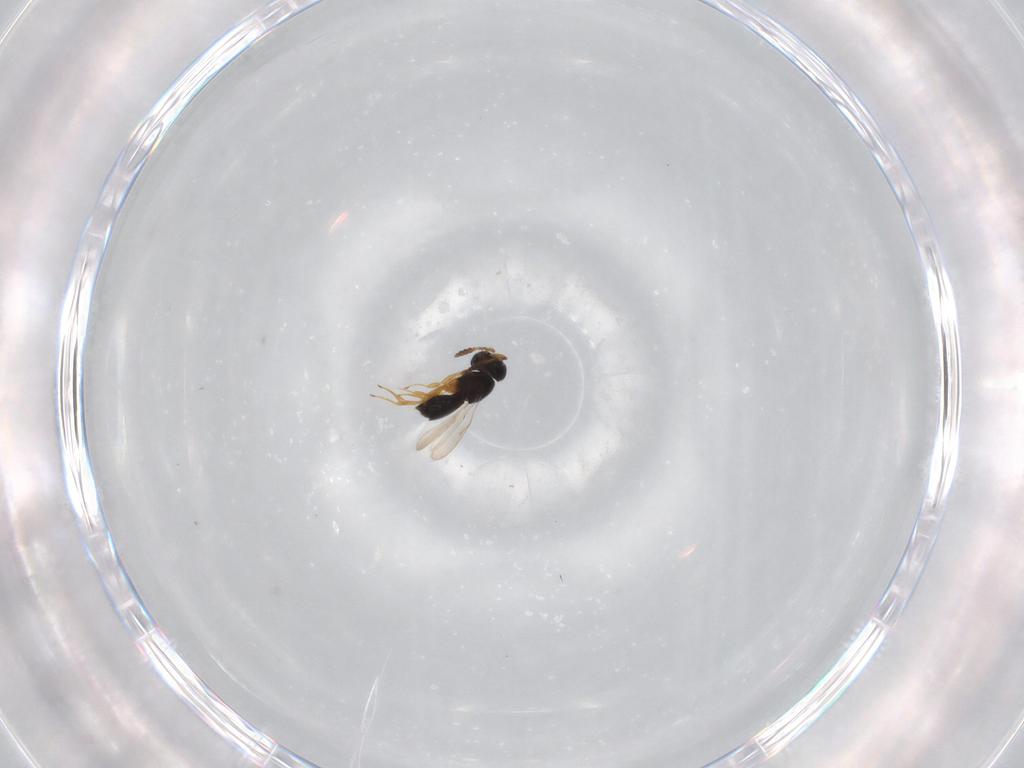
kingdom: Animalia
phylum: Arthropoda
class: Insecta
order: Hymenoptera
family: Scelionidae
